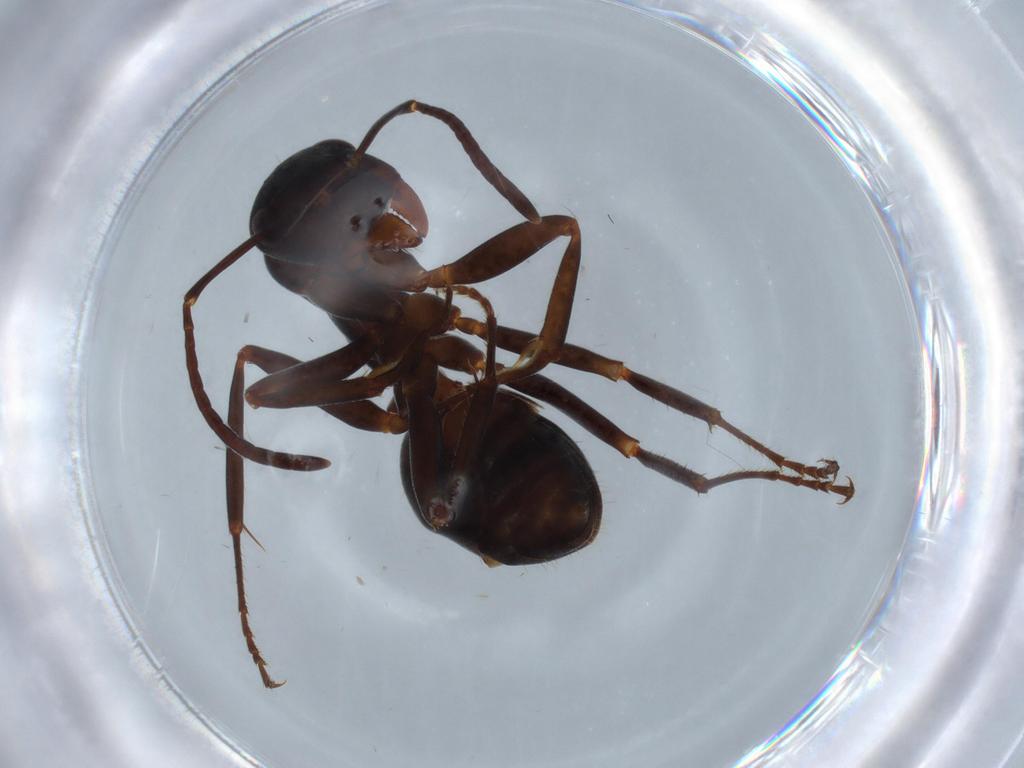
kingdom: Animalia
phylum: Arthropoda
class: Insecta
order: Hymenoptera
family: Formicidae
